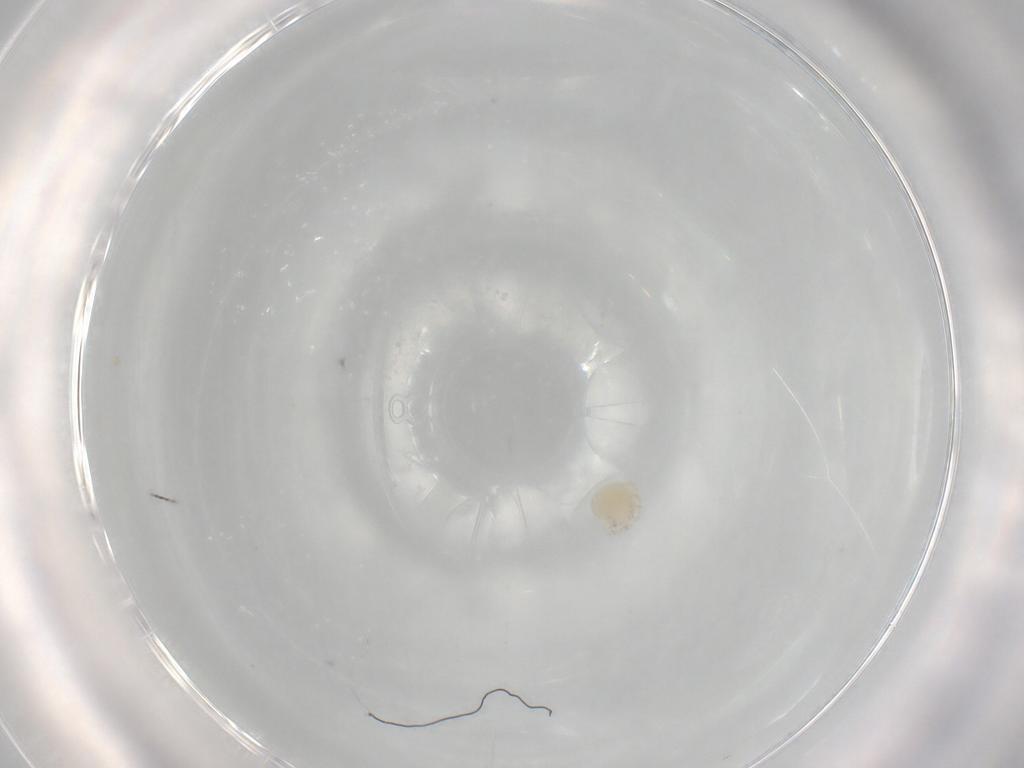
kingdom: Animalia
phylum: Arthropoda
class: Arachnida
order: Trombidiformes
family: Lebertiidae
